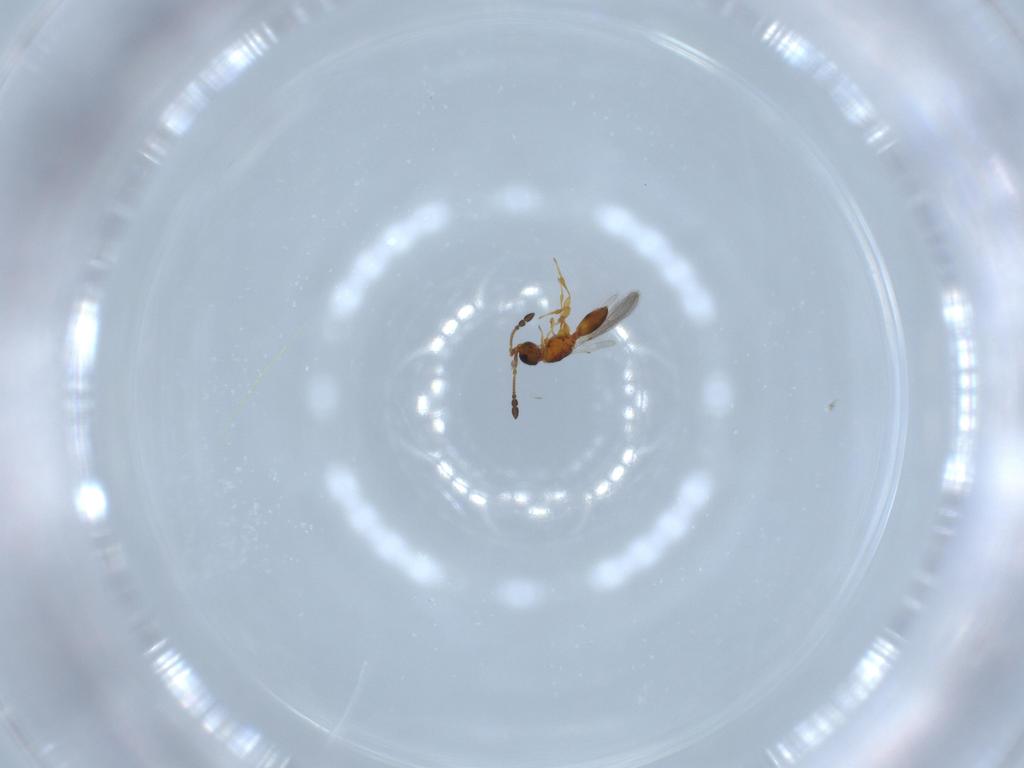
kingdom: Animalia
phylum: Arthropoda
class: Insecta
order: Hymenoptera
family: Diapriidae
